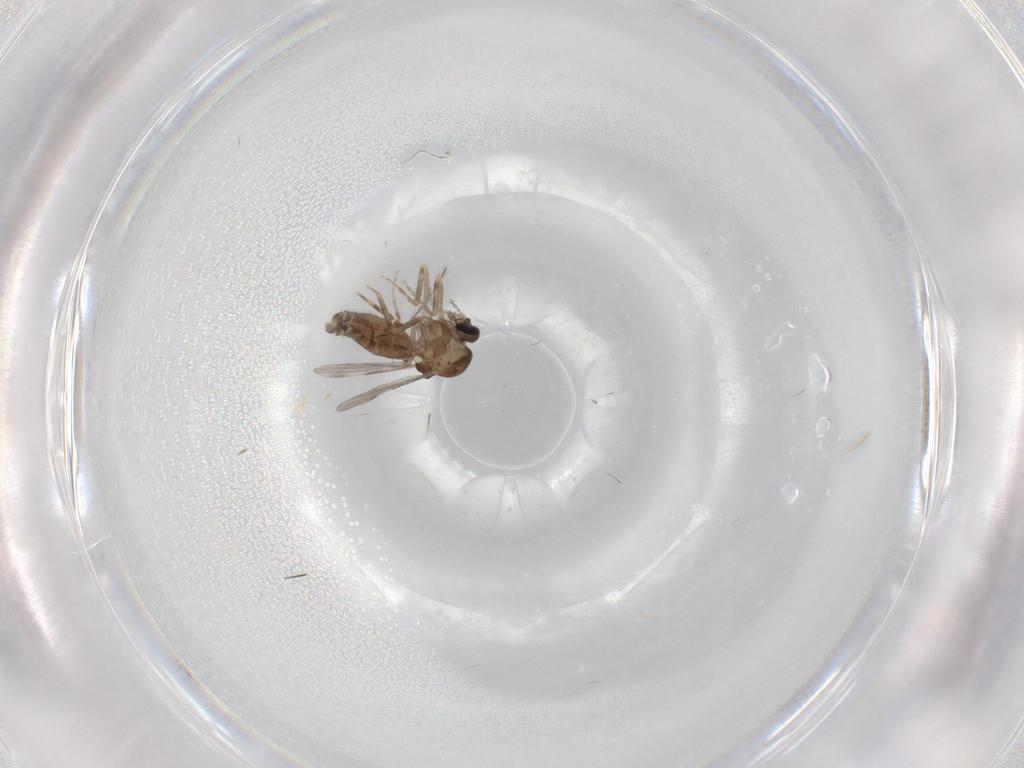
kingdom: Animalia
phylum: Arthropoda
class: Insecta
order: Diptera
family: Ceratopogonidae
